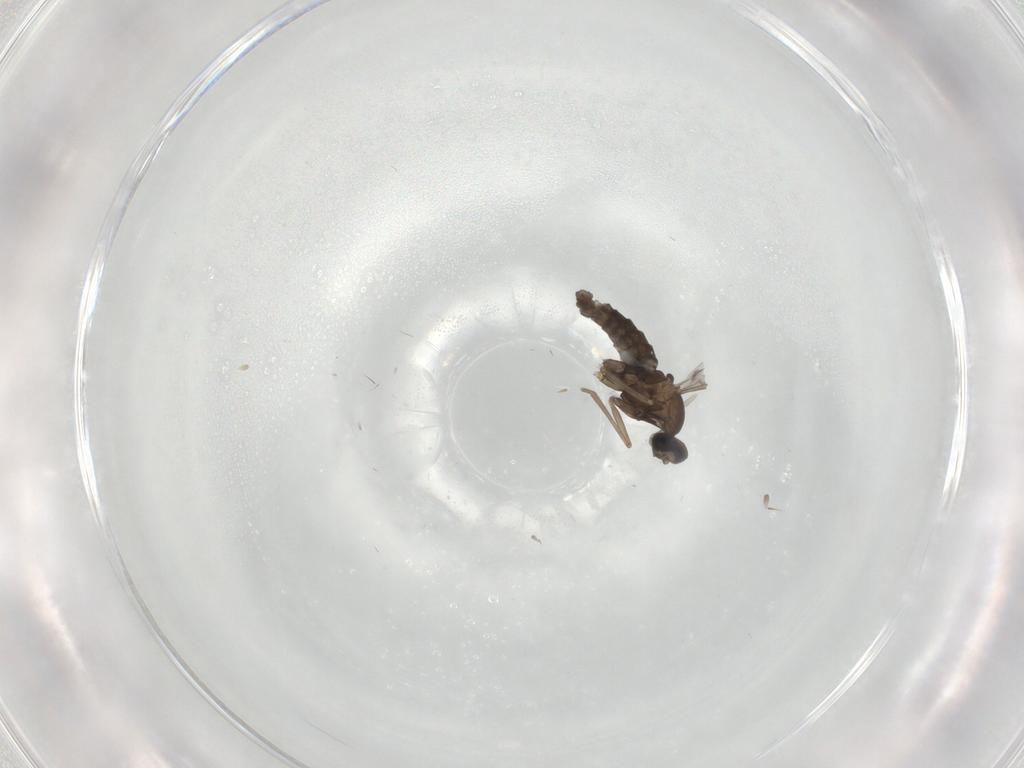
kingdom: Animalia
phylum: Arthropoda
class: Insecta
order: Diptera
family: Cecidomyiidae
